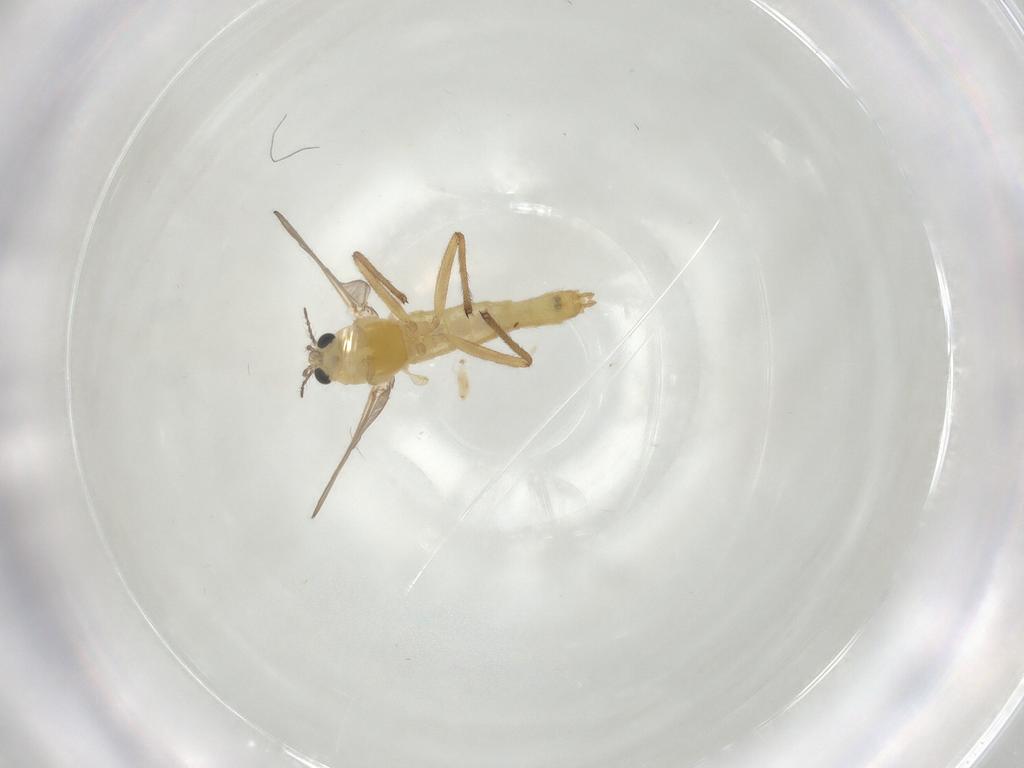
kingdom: Animalia
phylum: Arthropoda
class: Insecta
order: Diptera
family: Chironomidae
